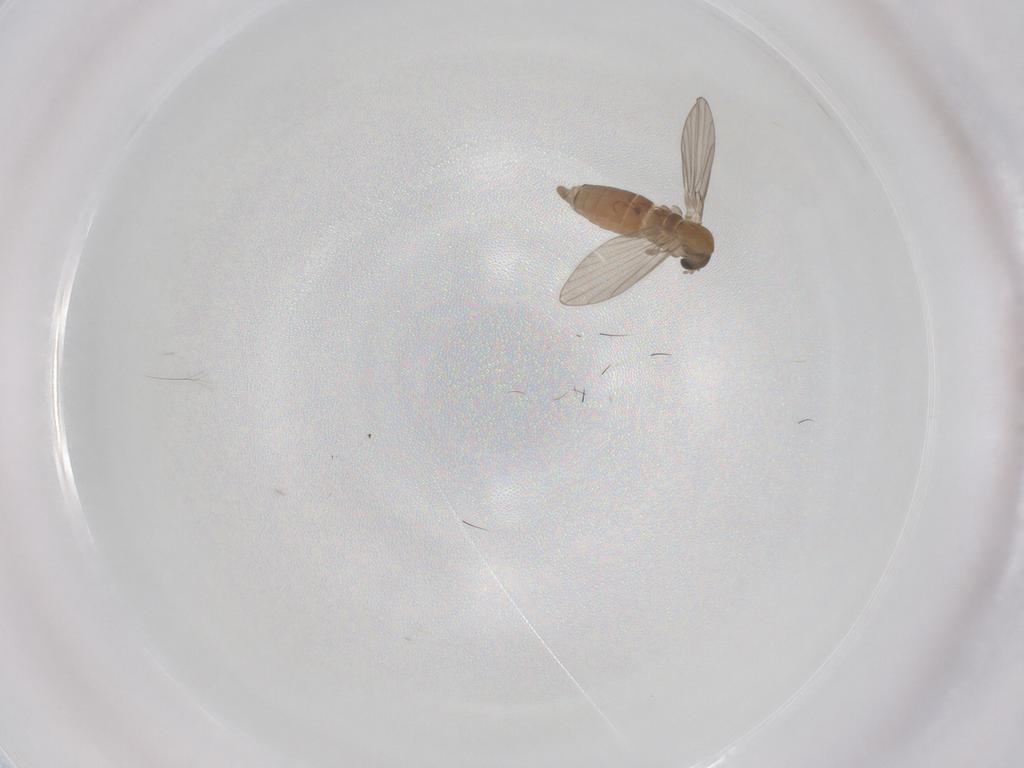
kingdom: Animalia
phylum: Arthropoda
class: Insecta
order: Diptera
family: Psychodidae
